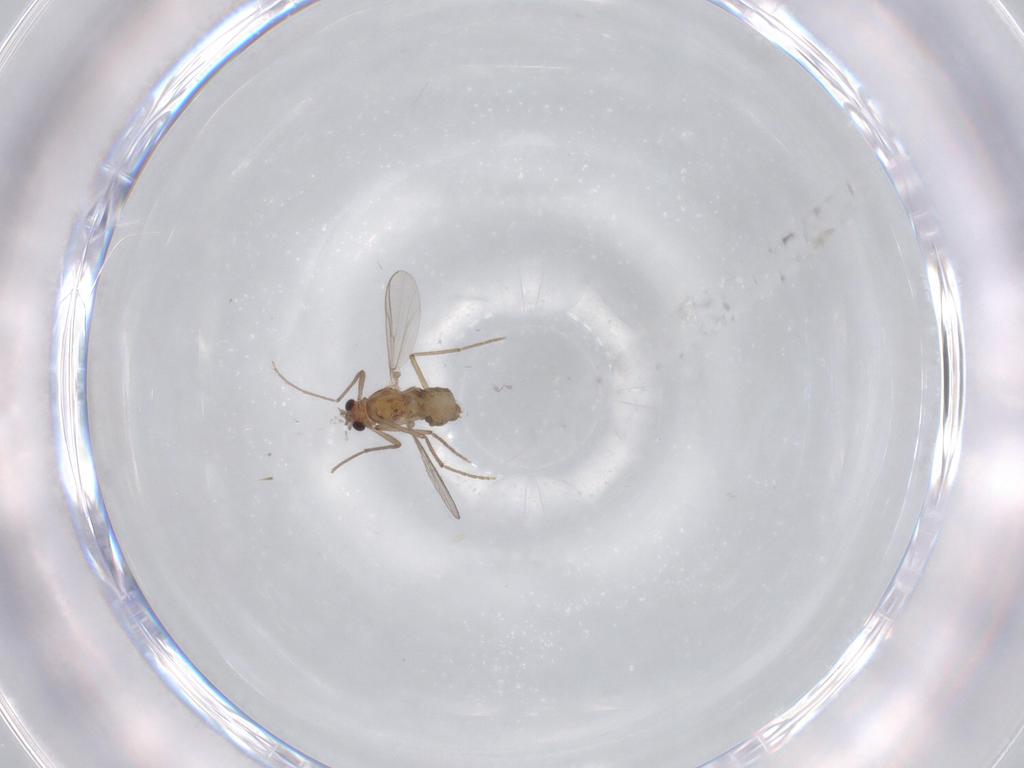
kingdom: Animalia
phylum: Arthropoda
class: Insecta
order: Diptera
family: Chironomidae
